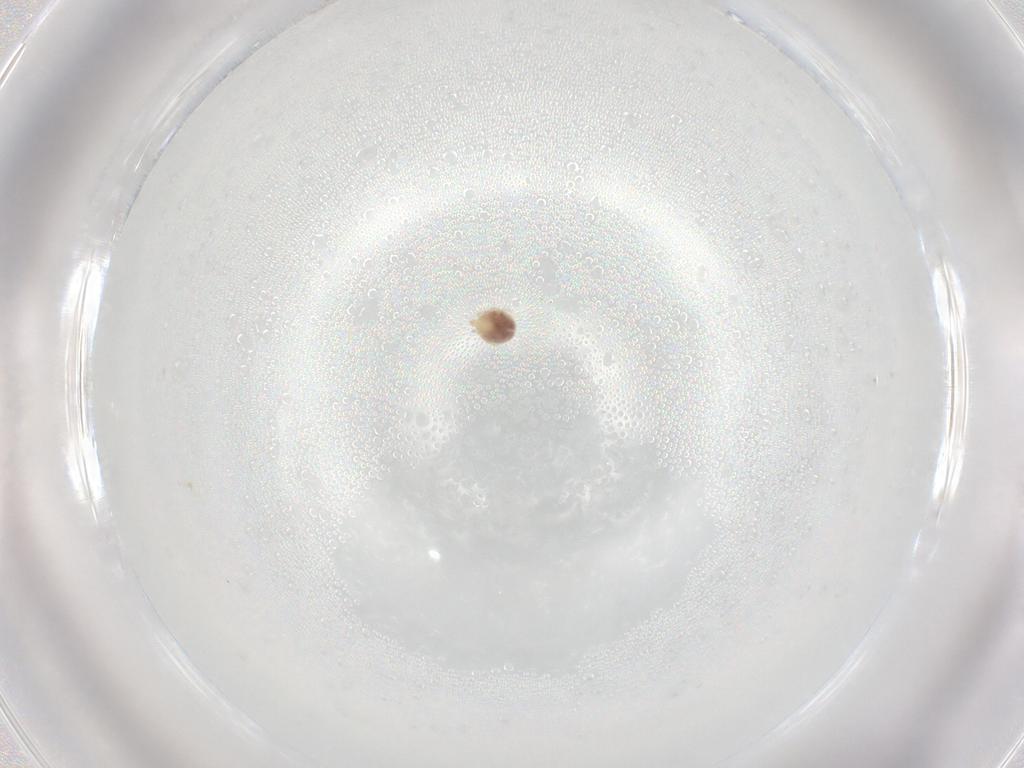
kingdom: Animalia
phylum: Arthropoda
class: Arachnida
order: Trombidiformes
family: Sperchontidae
